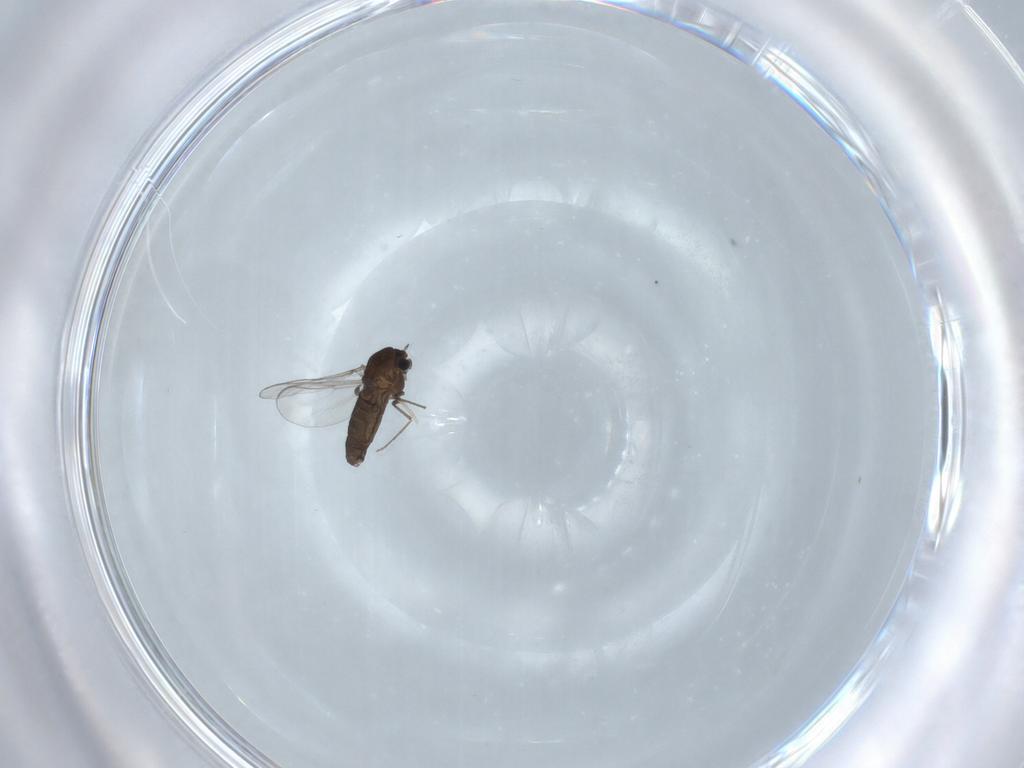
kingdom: Animalia
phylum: Arthropoda
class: Insecta
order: Diptera
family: Chironomidae
